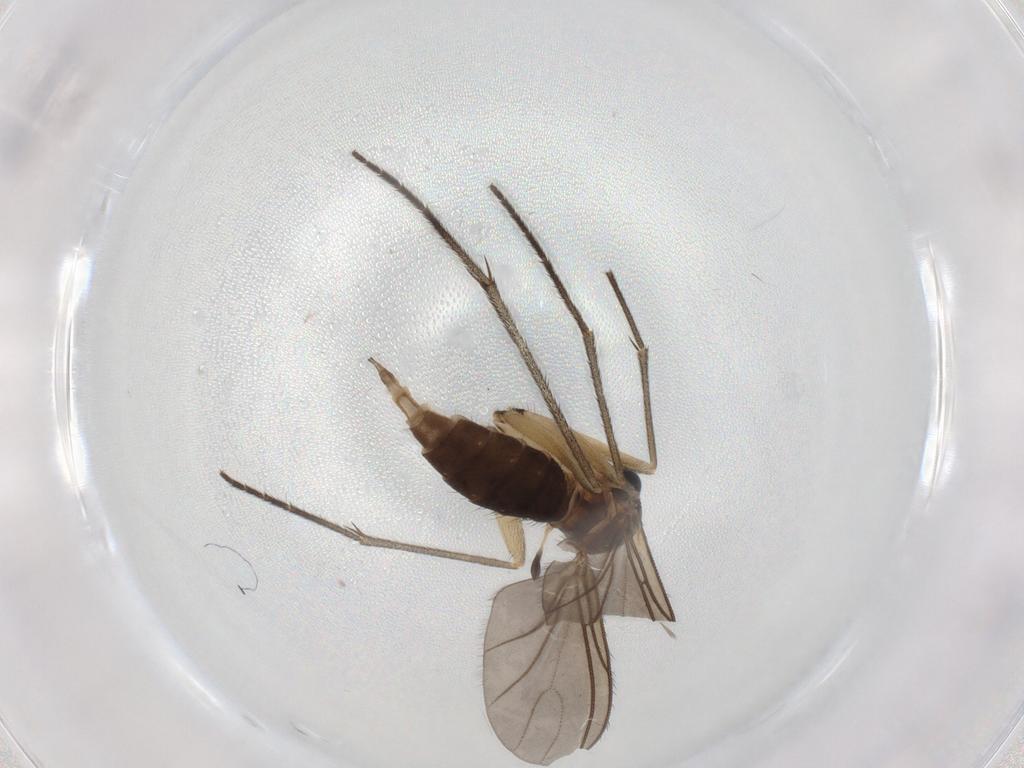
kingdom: Animalia
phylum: Arthropoda
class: Insecta
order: Diptera
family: Sciaridae
